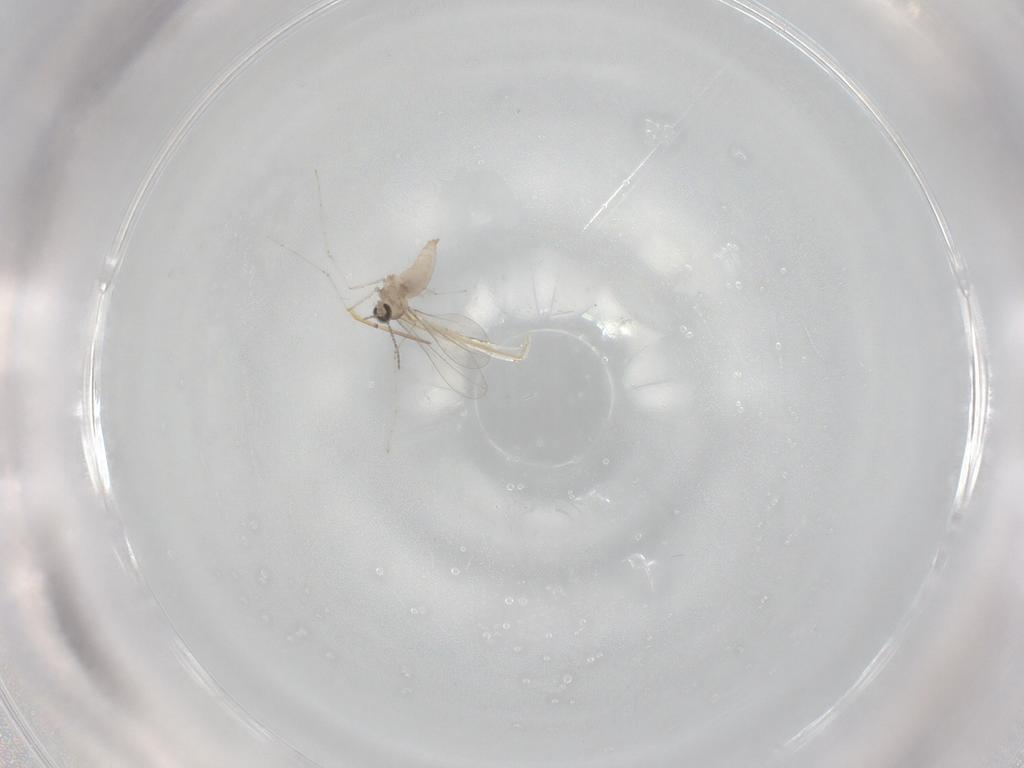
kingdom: Animalia
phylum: Arthropoda
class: Insecta
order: Diptera
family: Cecidomyiidae
